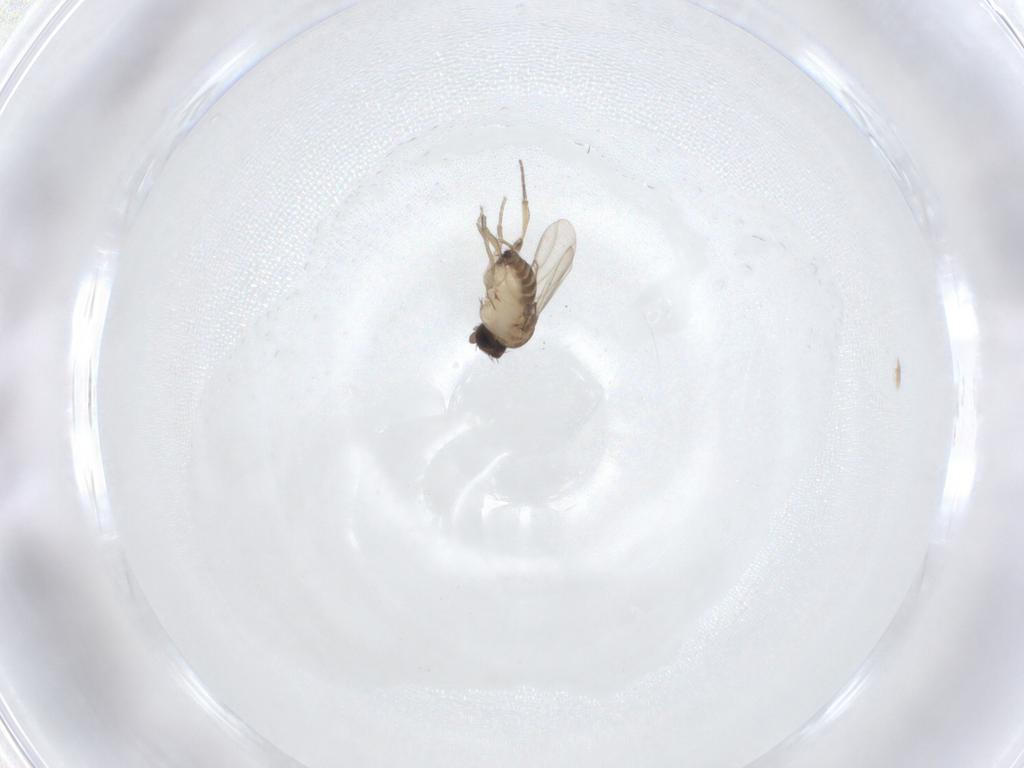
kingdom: Animalia
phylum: Arthropoda
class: Insecta
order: Diptera
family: Phoridae
